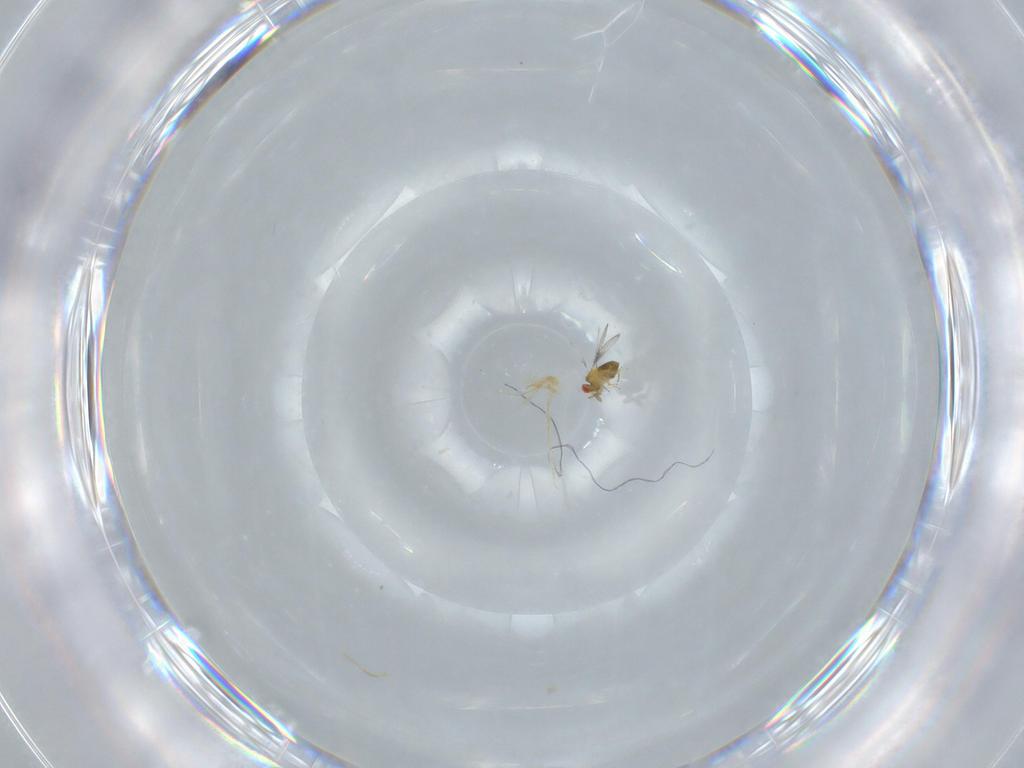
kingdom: Animalia
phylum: Arthropoda
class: Insecta
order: Hymenoptera
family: Trichogrammatidae
